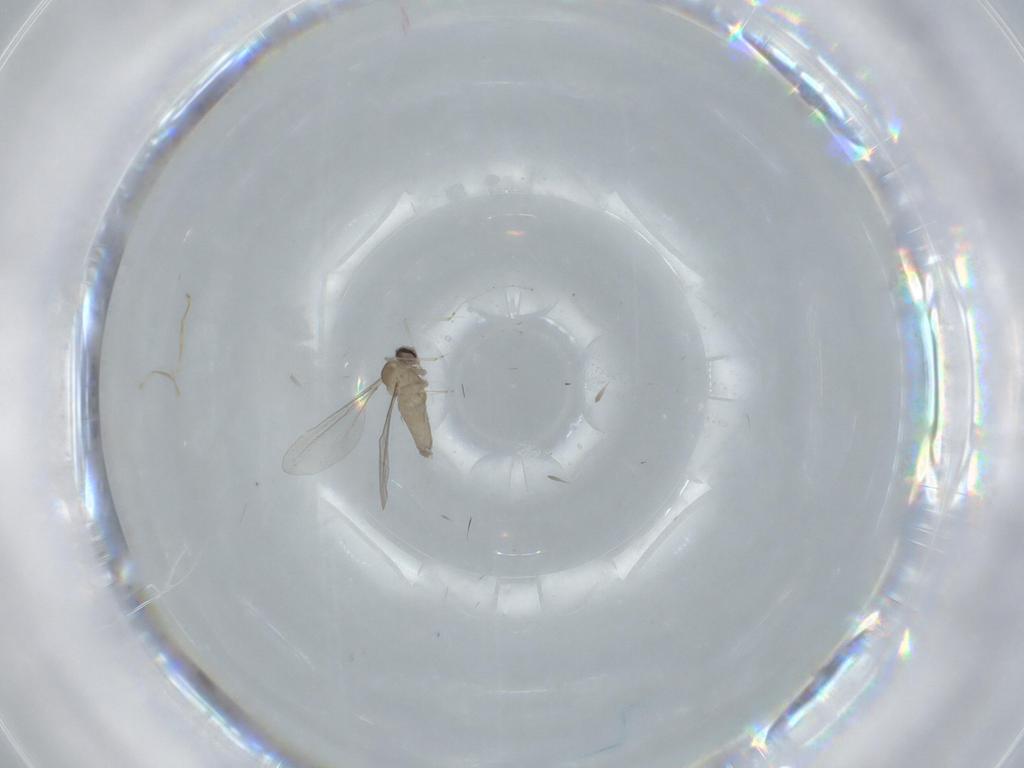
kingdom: Animalia
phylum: Arthropoda
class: Insecta
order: Diptera
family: Cecidomyiidae
